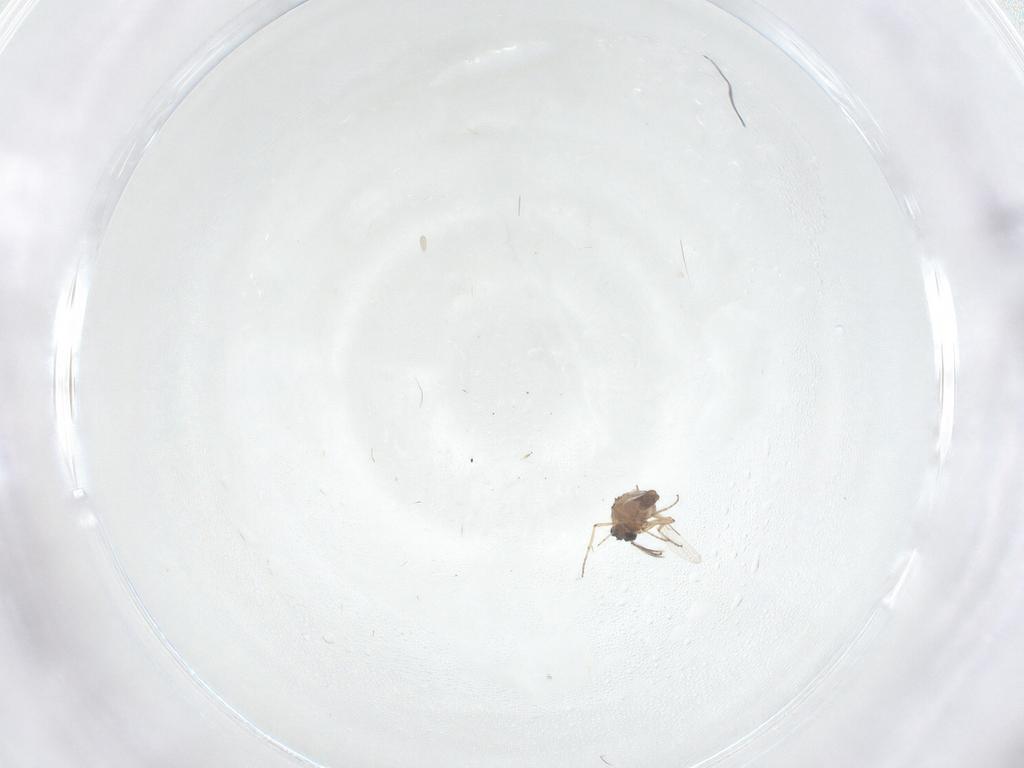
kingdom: Animalia
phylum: Arthropoda
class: Insecta
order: Diptera
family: Ceratopogonidae
